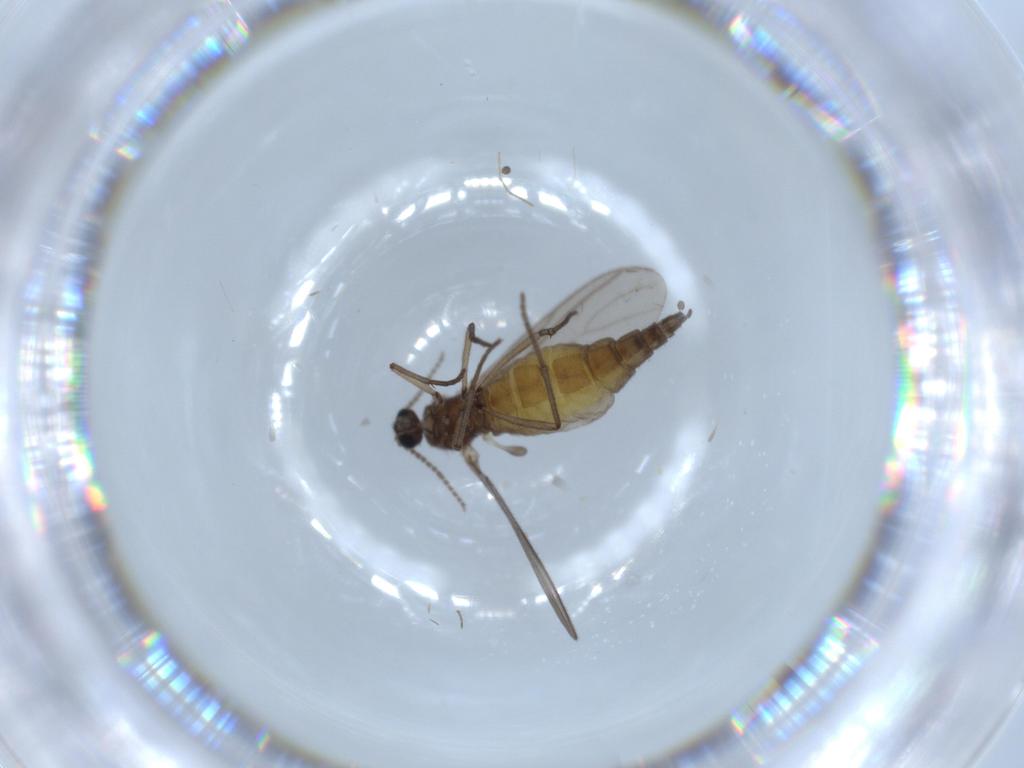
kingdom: Animalia
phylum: Arthropoda
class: Insecta
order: Diptera
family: Sciaridae
